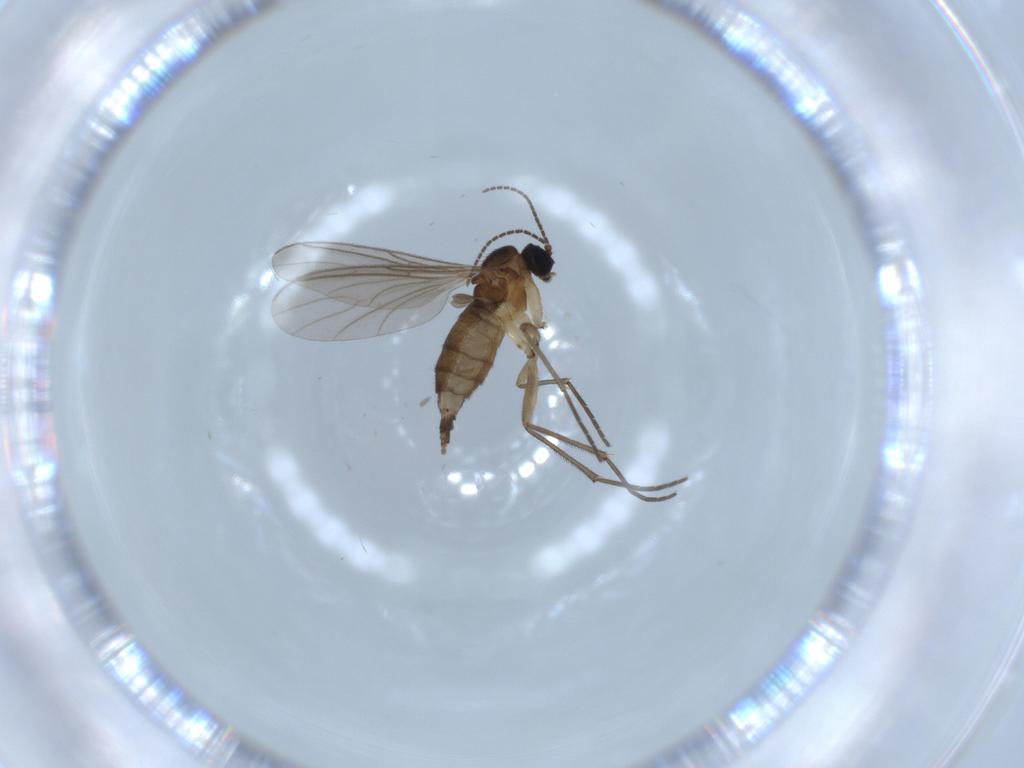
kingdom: Animalia
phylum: Arthropoda
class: Insecta
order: Diptera
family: Sciaridae
